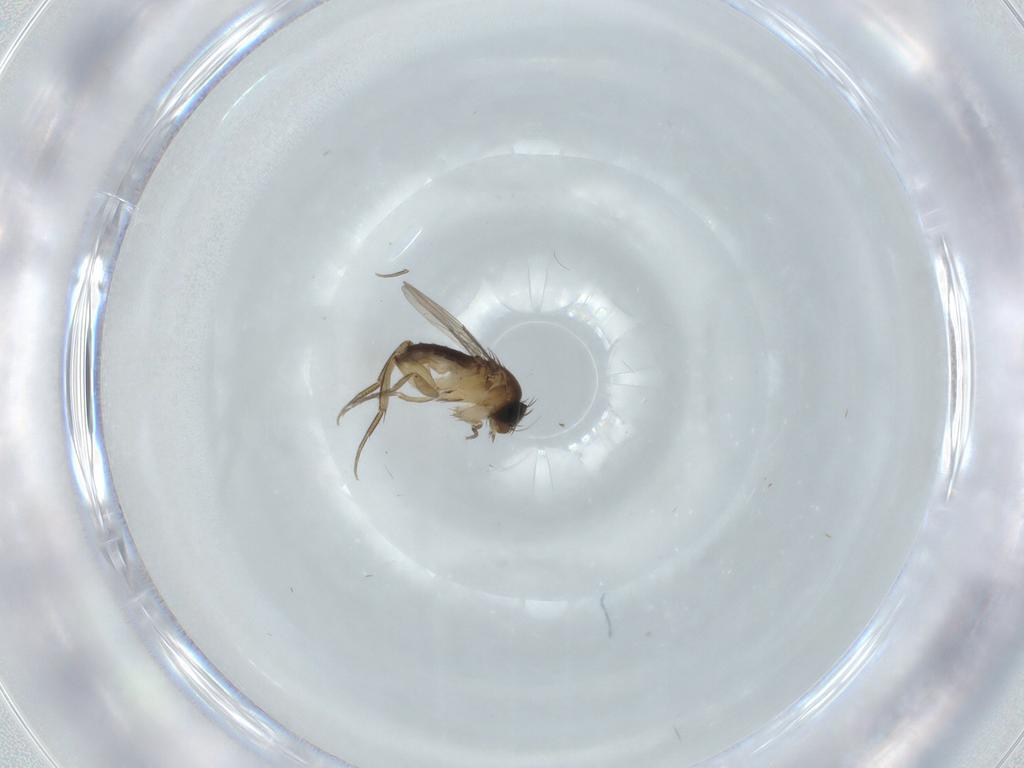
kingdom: Animalia
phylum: Arthropoda
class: Insecta
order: Diptera
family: Phoridae
